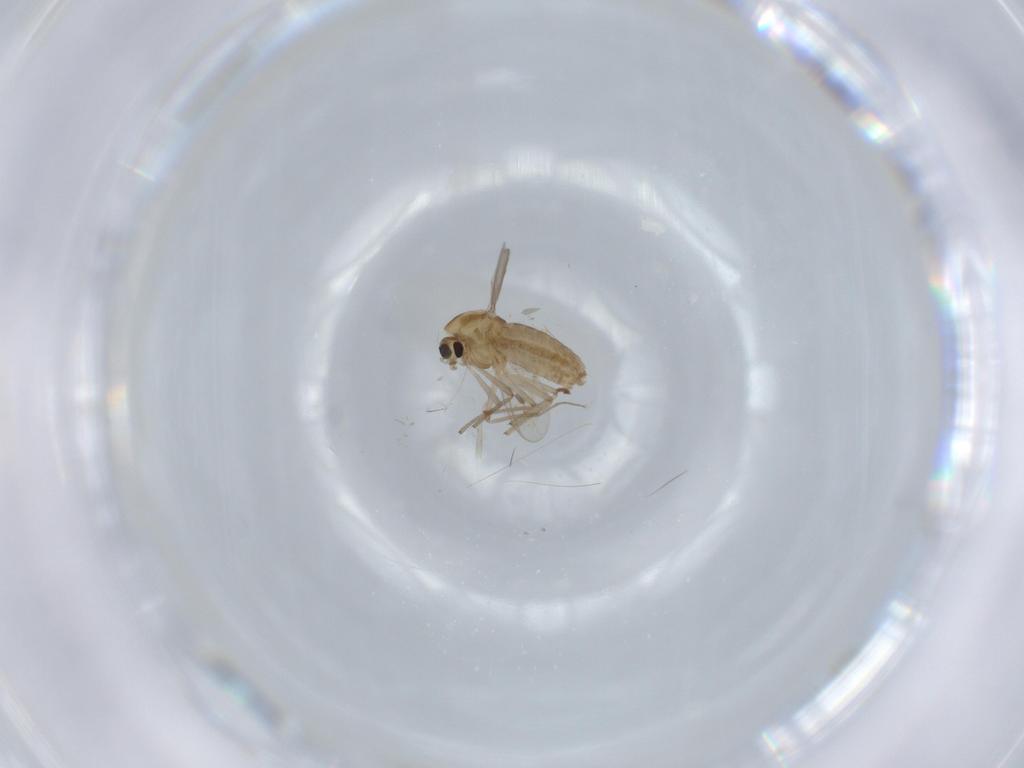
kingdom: Animalia
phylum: Arthropoda
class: Insecta
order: Diptera
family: Chironomidae
